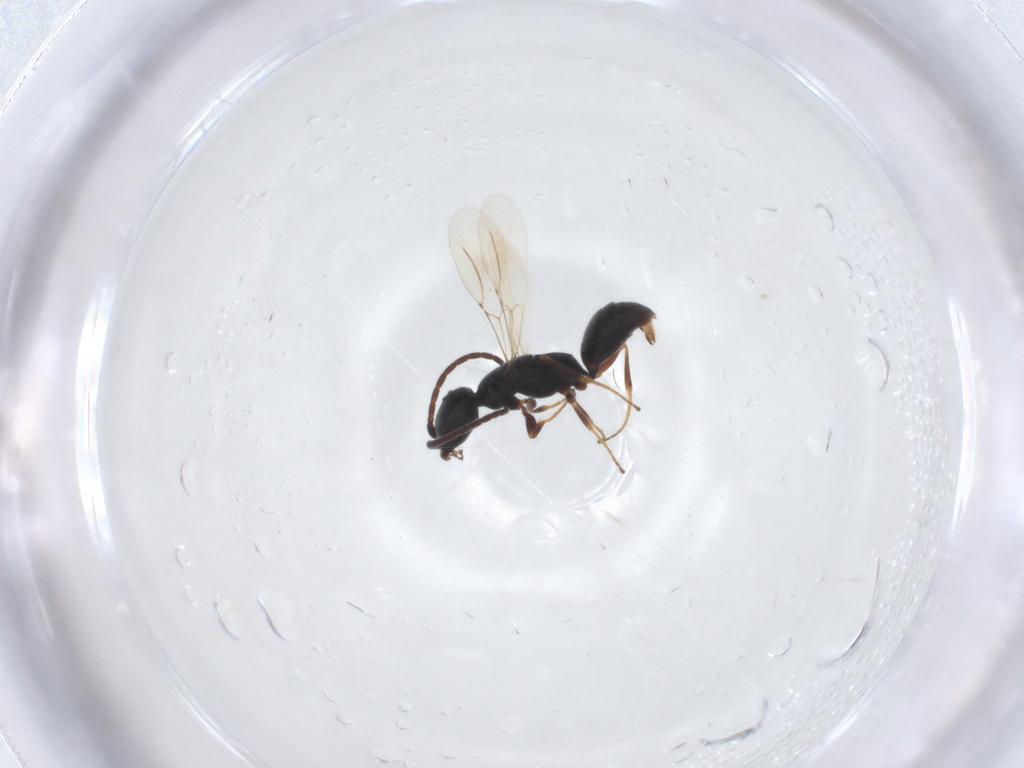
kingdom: Animalia
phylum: Arthropoda
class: Insecta
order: Hymenoptera
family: Bethylidae
